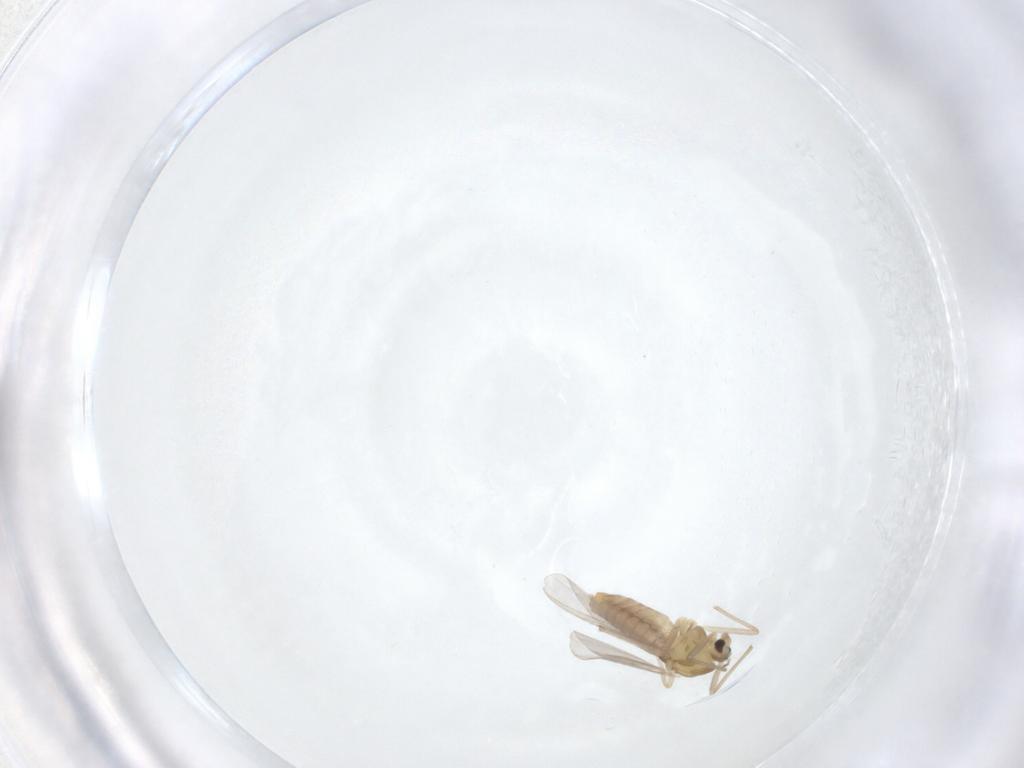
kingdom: Animalia
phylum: Arthropoda
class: Insecta
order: Diptera
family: Chironomidae
